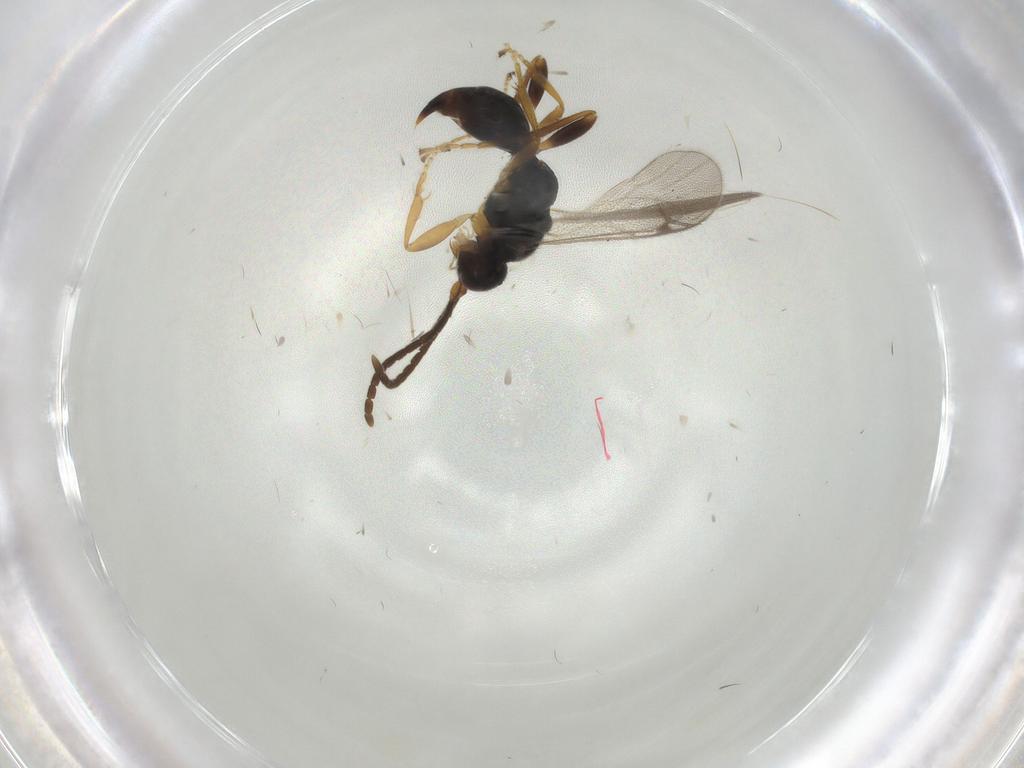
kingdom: Animalia
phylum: Arthropoda
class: Insecta
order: Hymenoptera
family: Proctotrupidae
